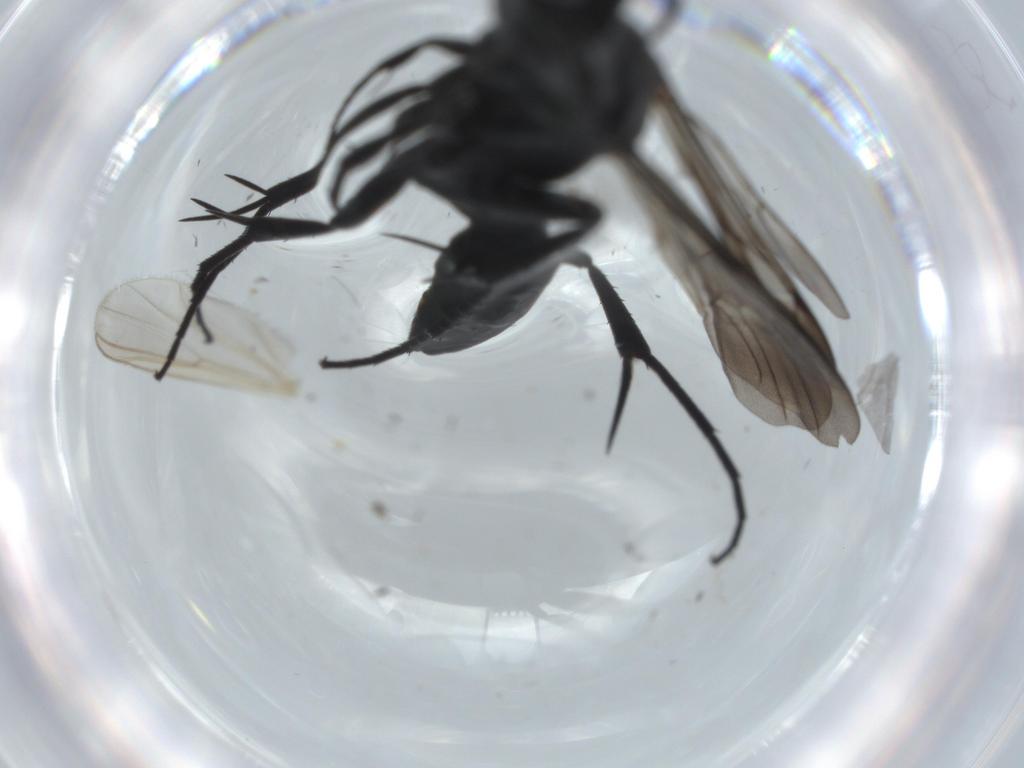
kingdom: Animalia
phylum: Arthropoda
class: Insecta
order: Hymenoptera
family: Pompilidae
